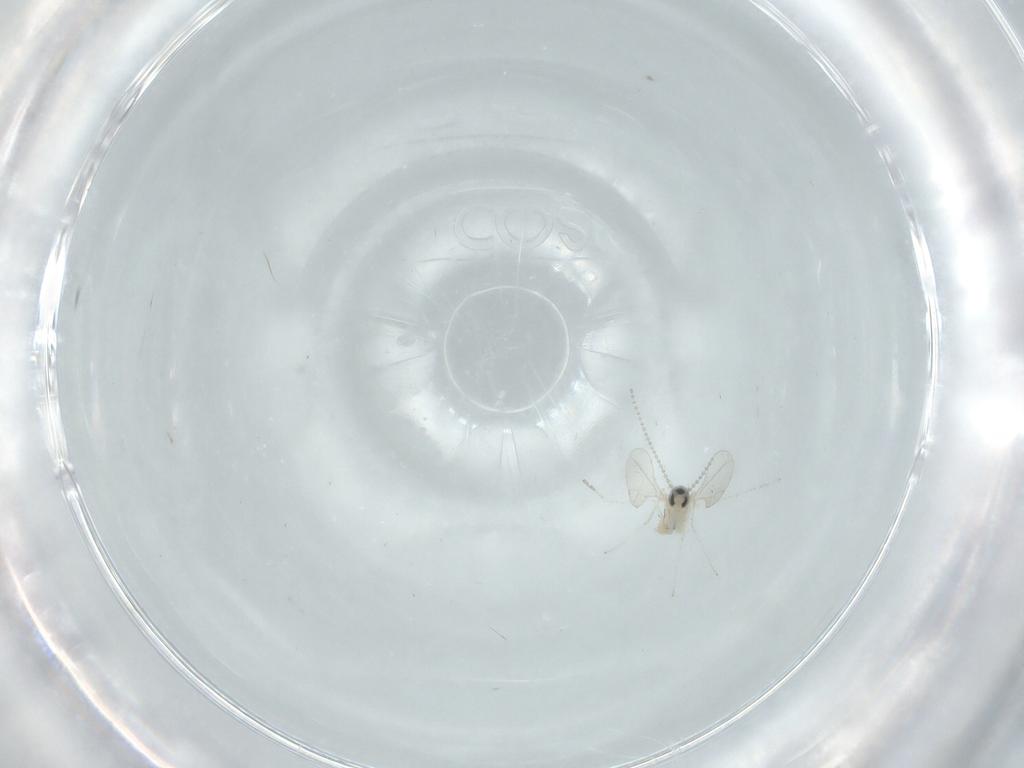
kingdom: Animalia
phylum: Arthropoda
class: Insecta
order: Diptera
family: Cecidomyiidae
